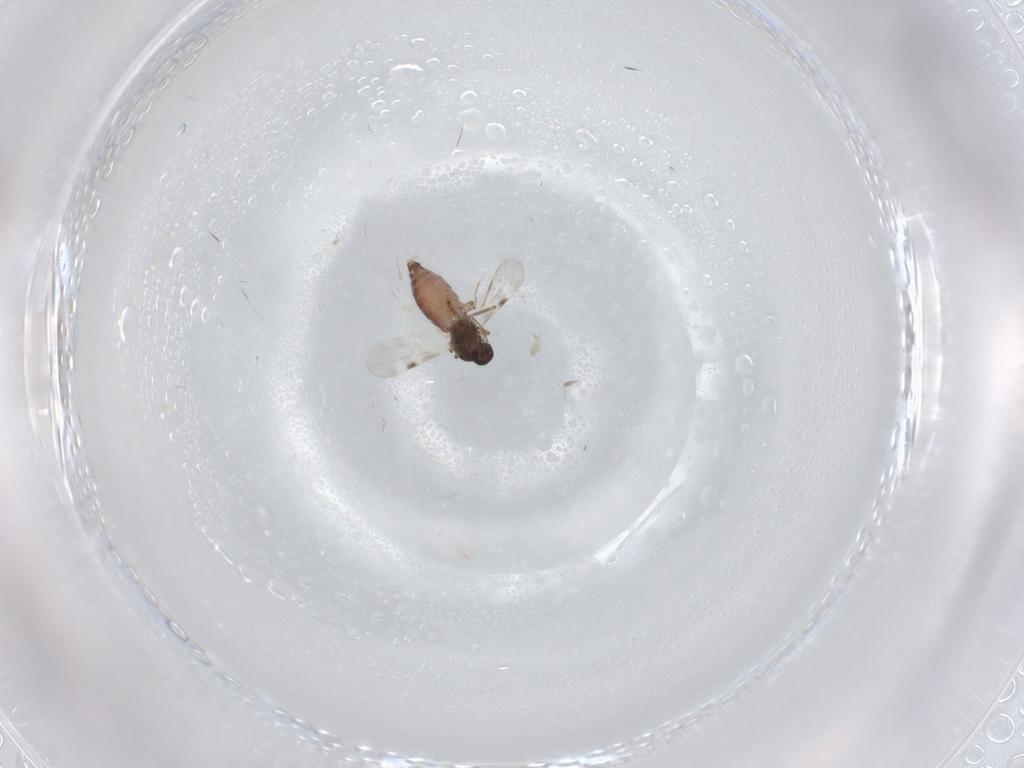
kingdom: Animalia
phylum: Arthropoda
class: Insecta
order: Diptera
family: Phoridae
